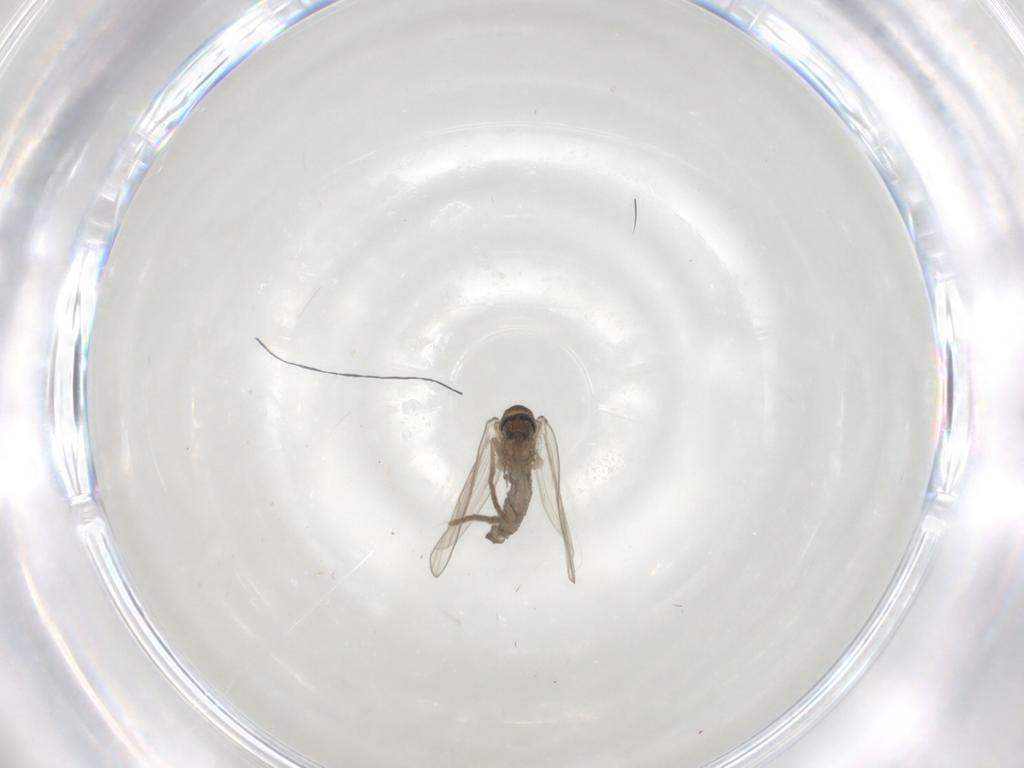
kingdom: Animalia
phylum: Arthropoda
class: Insecta
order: Diptera
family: Psychodidae
